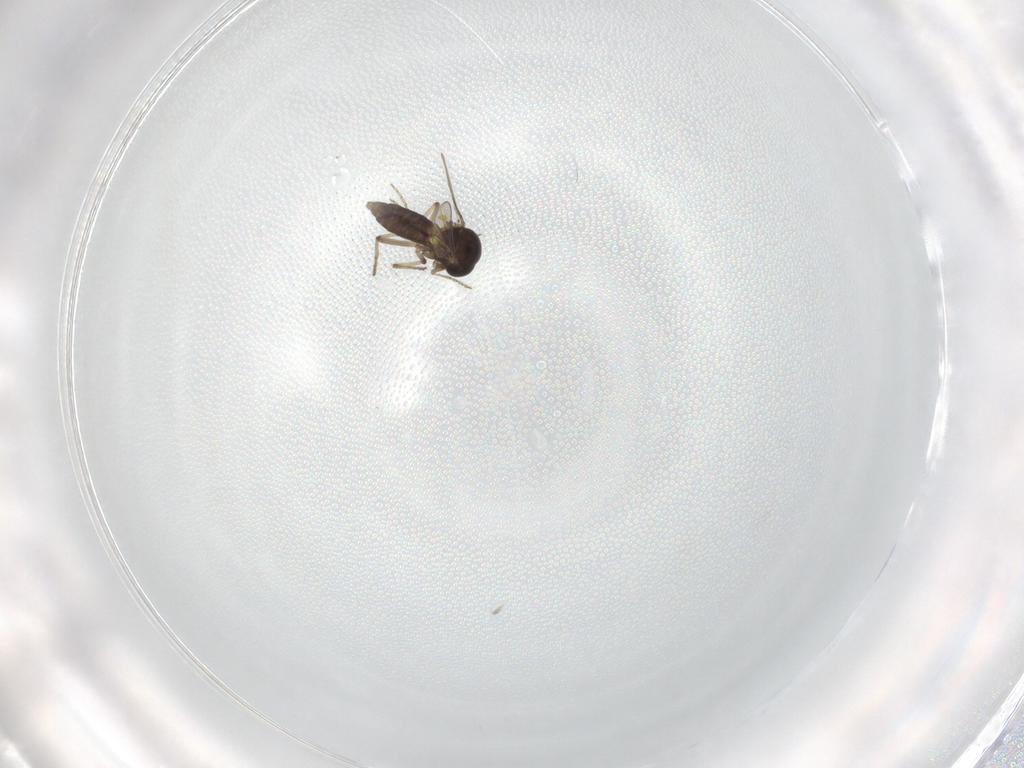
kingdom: Animalia
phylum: Arthropoda
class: Insecta
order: Diptera
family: Ceratopogonidae
